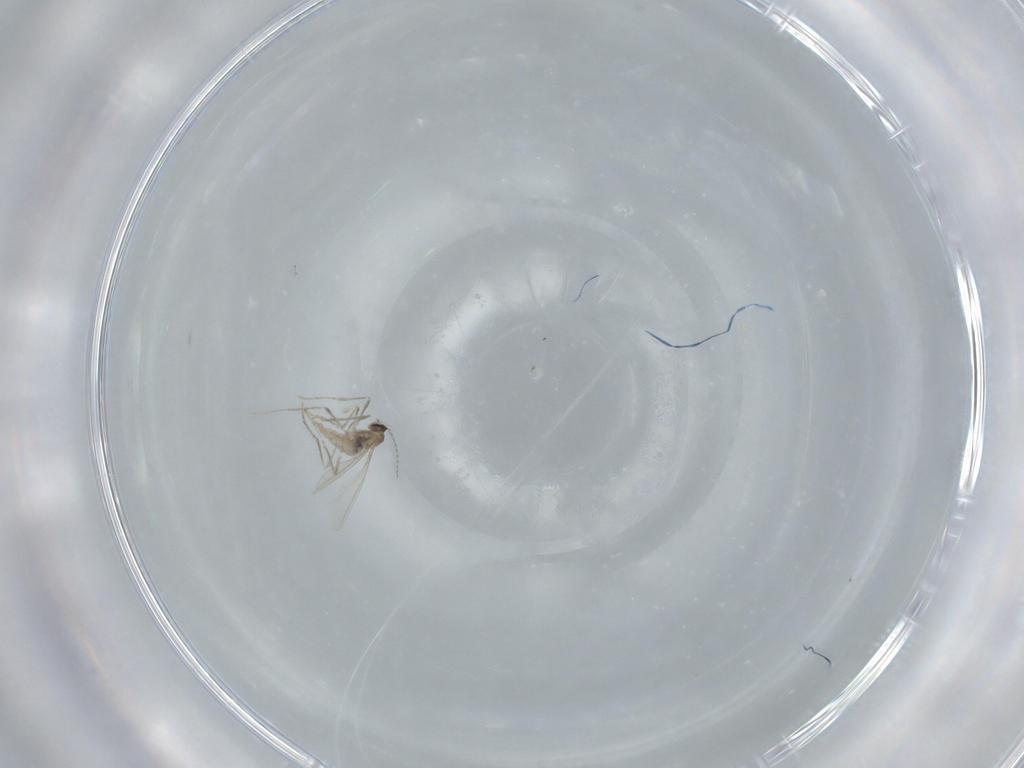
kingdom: Animalia
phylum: Arthropoda
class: Insecta
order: Diptera
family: Cecidomyiidae
